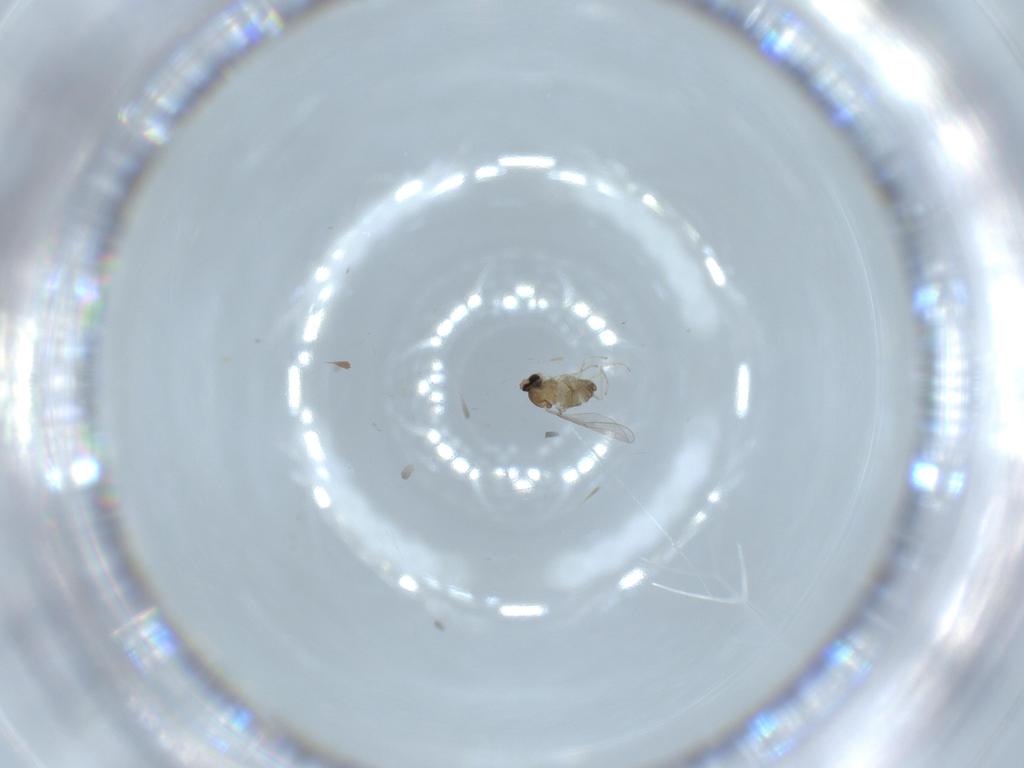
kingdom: Animalia
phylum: Arthropoda
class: Insecta
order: Diptera
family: Cecidomyiidae
